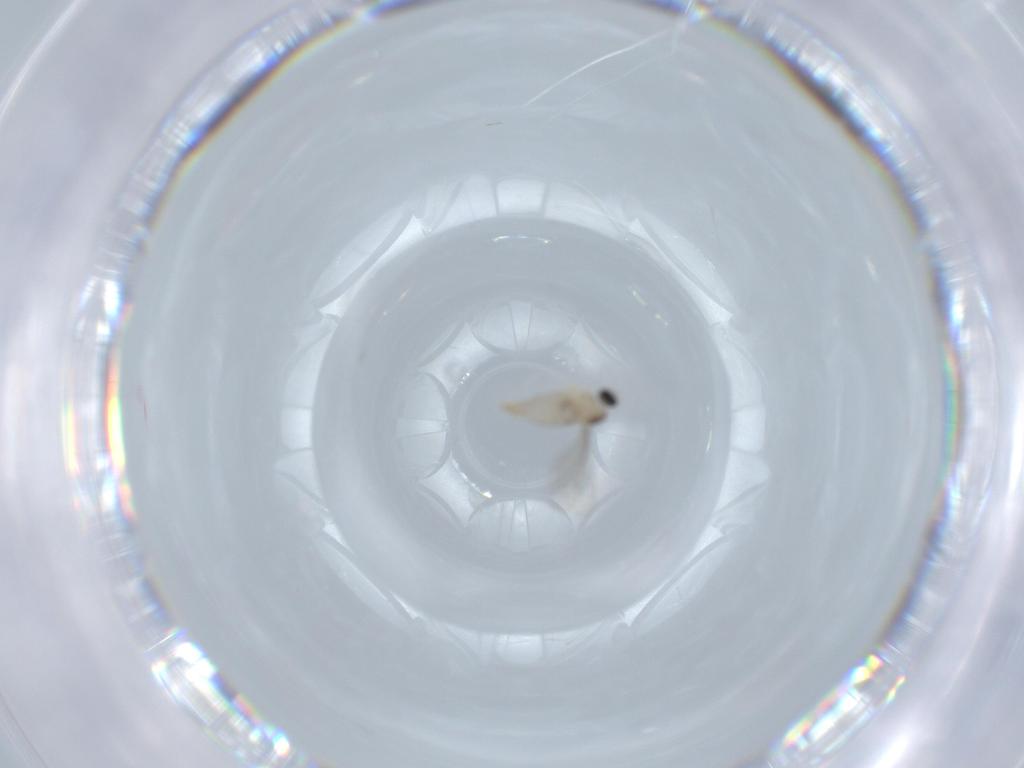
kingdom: Animalia
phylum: Arthropoda
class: Insecta
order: Diptera
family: Cecidomyiidae
